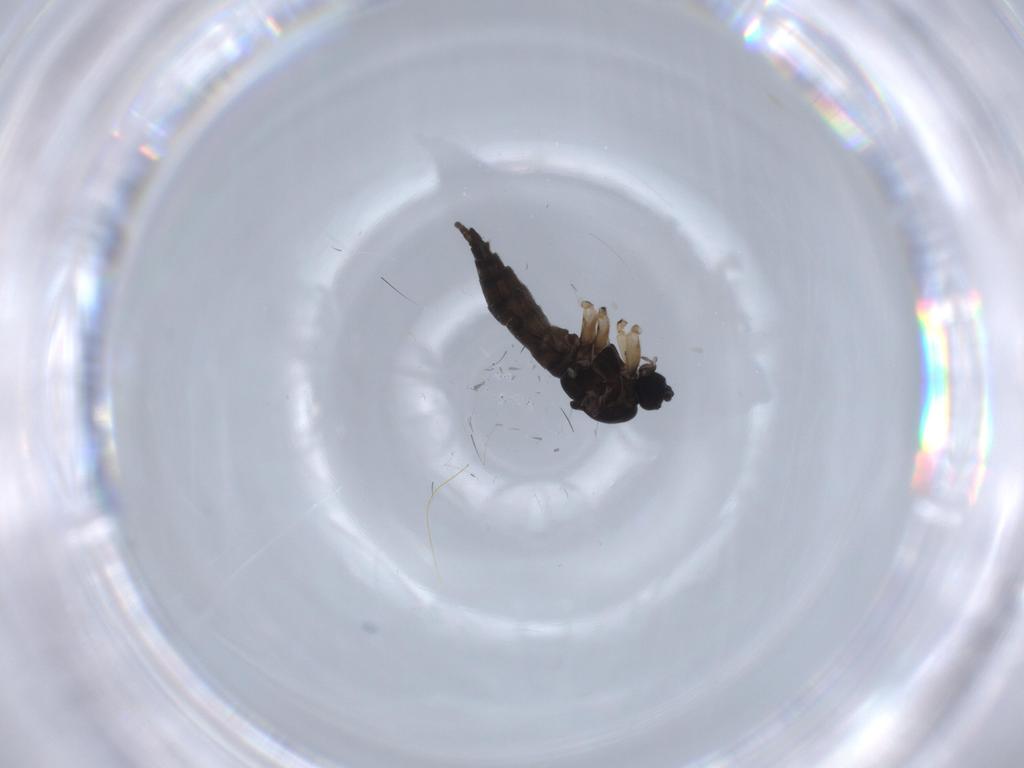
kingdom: Animalia
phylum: Arthropoda
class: Insecta
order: Diptera
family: Sciaridae
